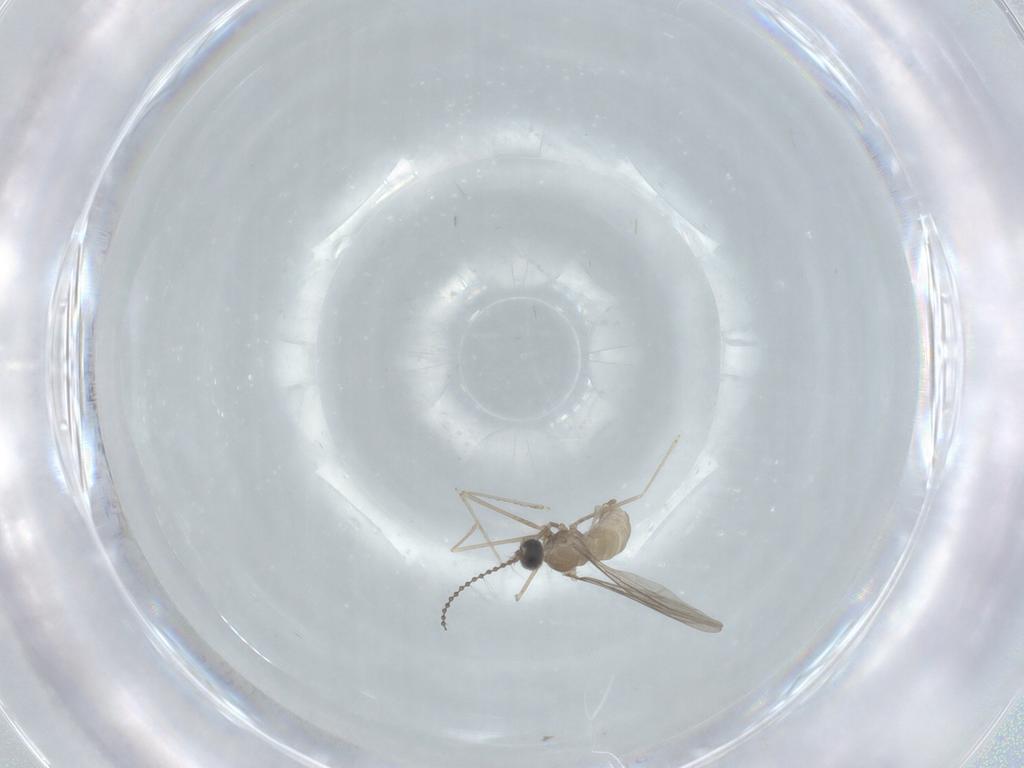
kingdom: Animalia
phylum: Arthropoda
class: Insecta
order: Diptera
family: Cecidomyiidae
